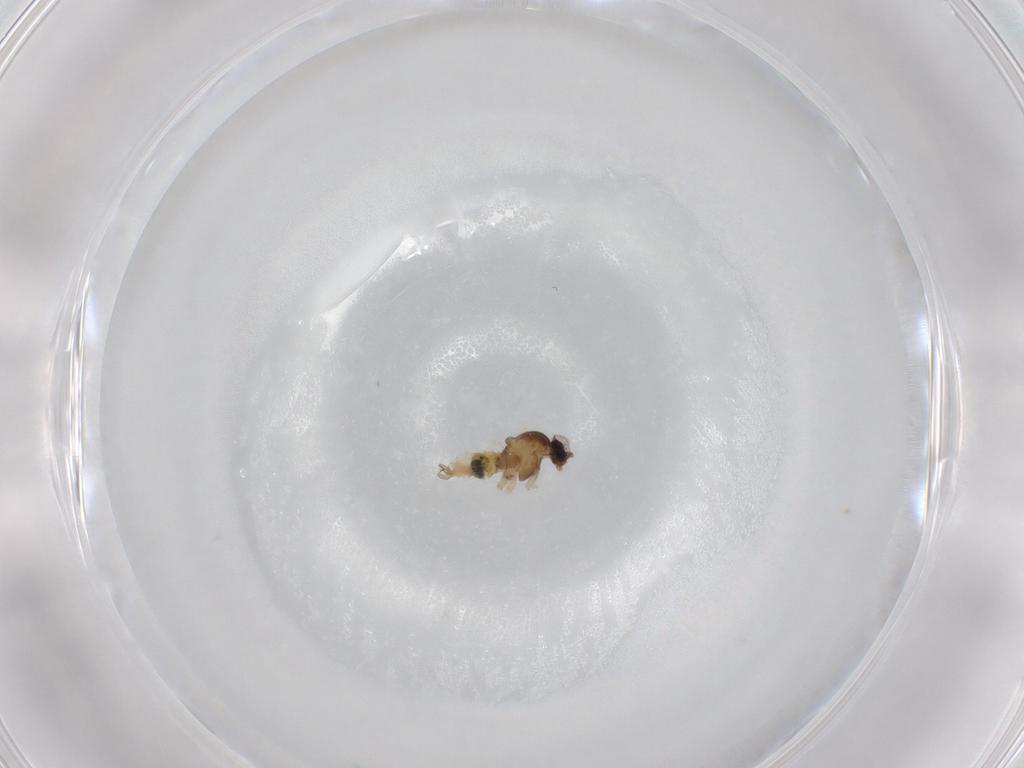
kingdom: Animalia
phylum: Arthropoda
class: Insecta
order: Diptera
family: Cecidomyiidae
